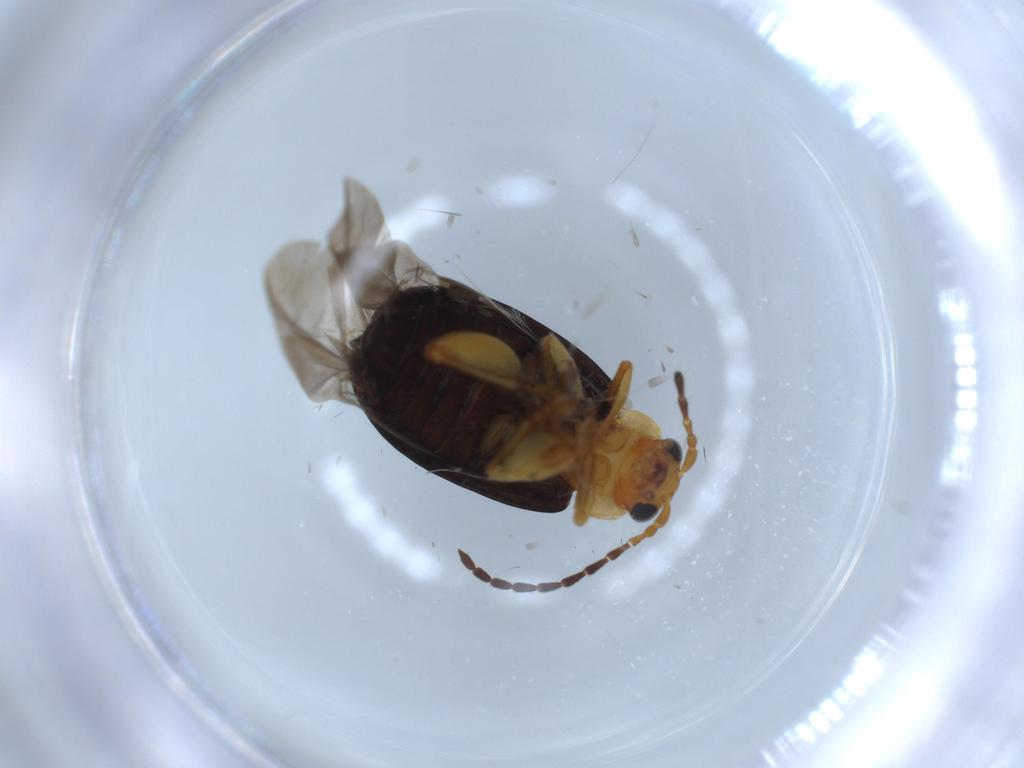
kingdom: Animalia
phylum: Arthropoda
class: Insecta
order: Coleoptera
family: Chrysomelidae
